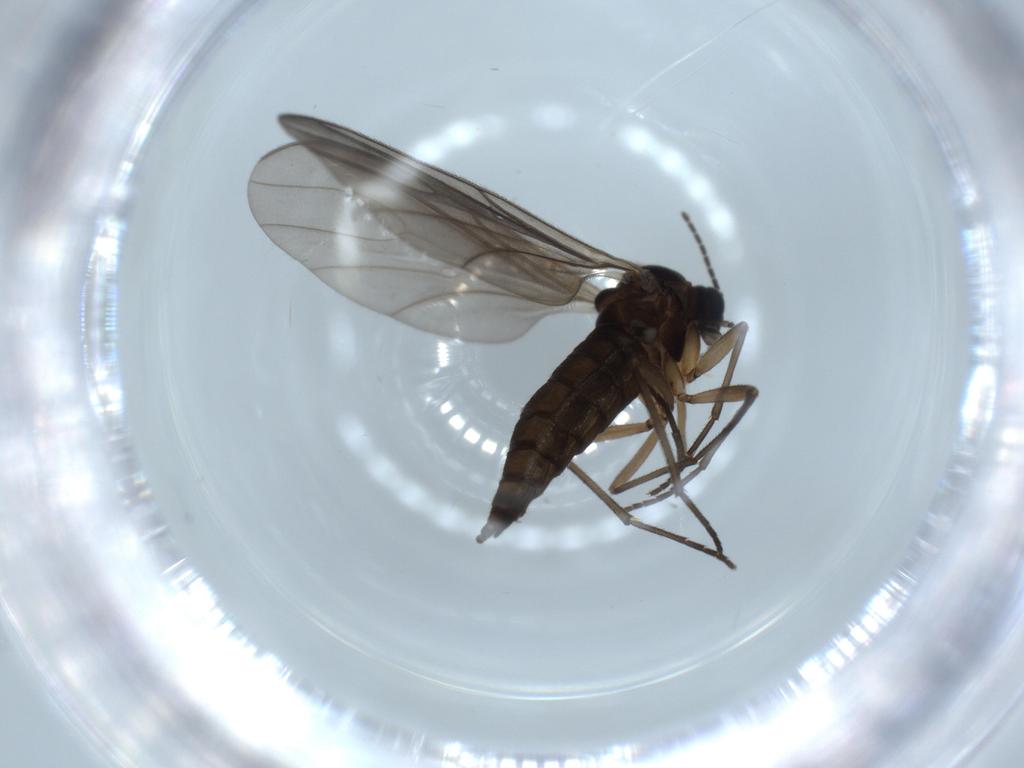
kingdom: Animalia
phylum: Arthropoda
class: Insecta
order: Diptera
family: Sciaridae
